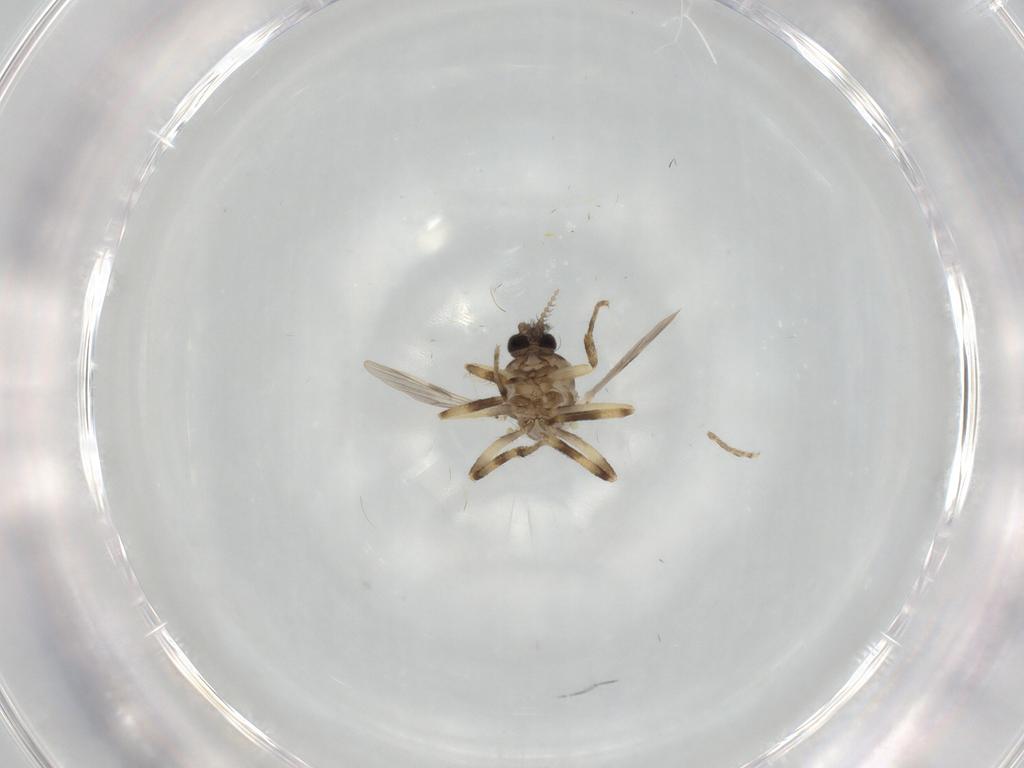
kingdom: Animalia
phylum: Arthropoda
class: Insecta
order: Diptera
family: Ceratopogonidae
